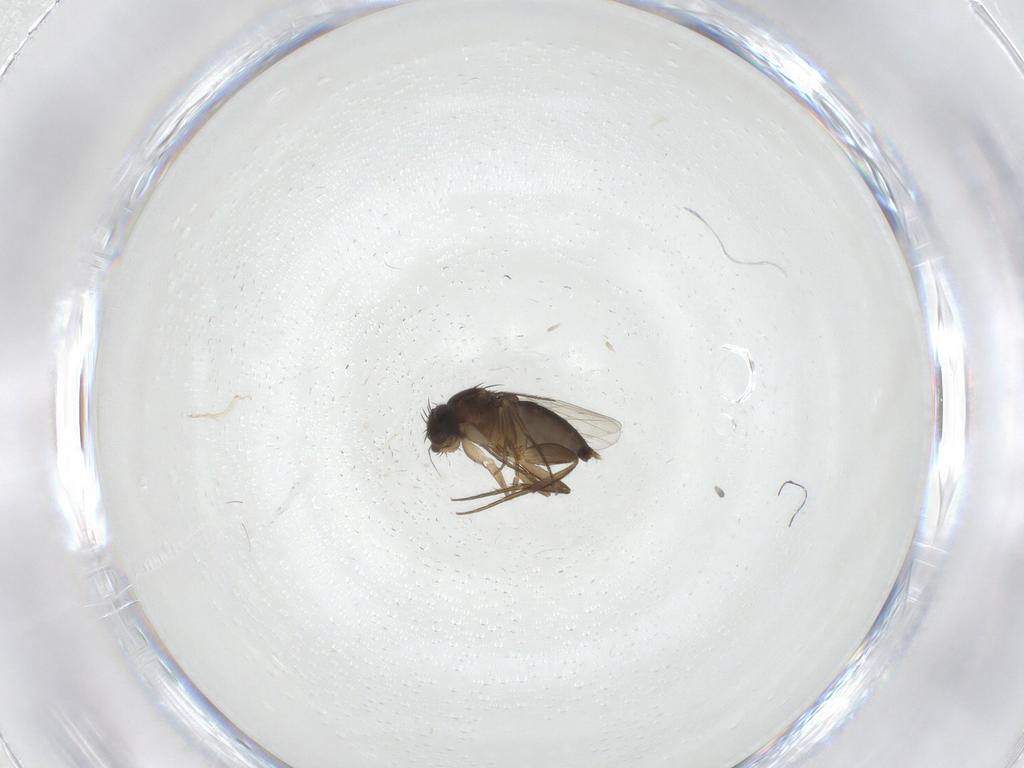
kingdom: Animalia
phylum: Arthropoda
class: Insecta
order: Diptera
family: Phoridae
